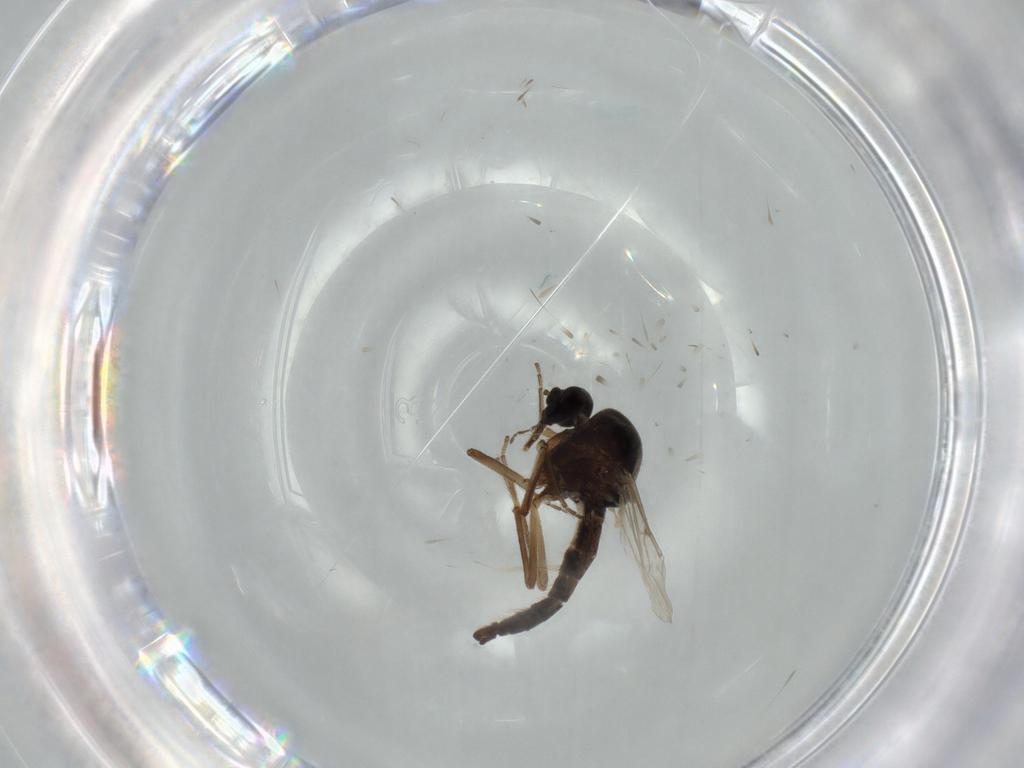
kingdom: Animalia
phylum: Arthropoda
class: Insecta
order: Diptera
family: Ceratopogonidae
